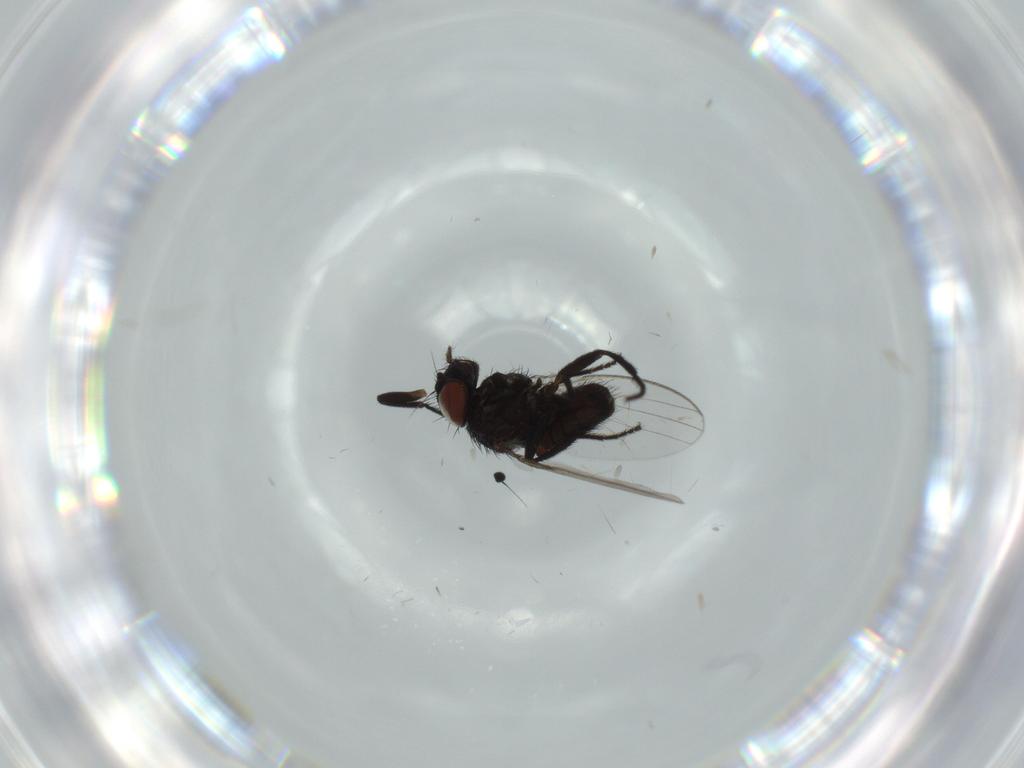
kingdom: Animalia
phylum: Arthropoda
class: Insecta
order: Diptera
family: Milichiidae
